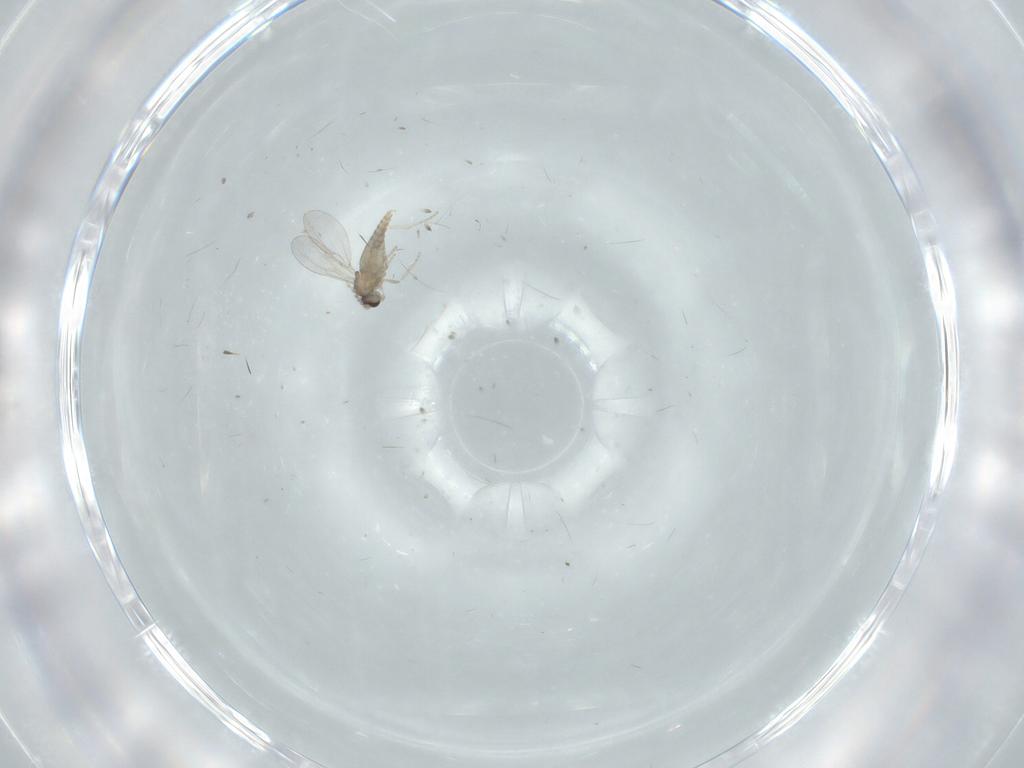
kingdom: Animalia
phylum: Arthropoda
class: Insecta
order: Diptera
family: Cecidomyiidae
